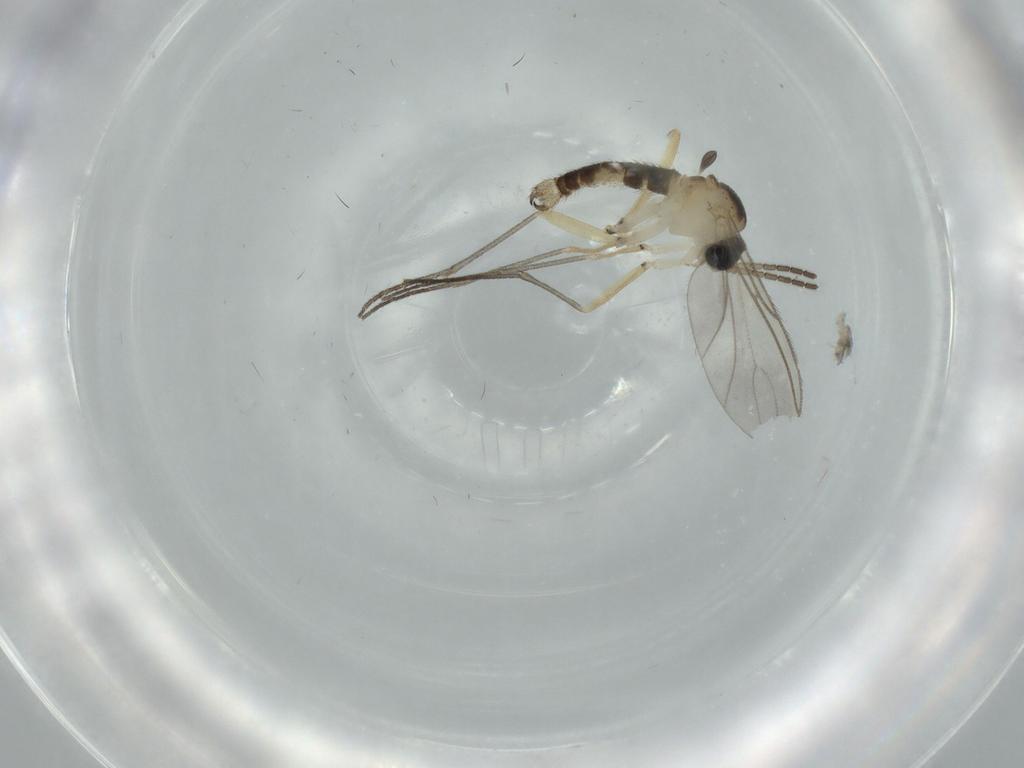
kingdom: Animalia
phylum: Arthropoda
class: Insecta
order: Diptera
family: Sciaridae
